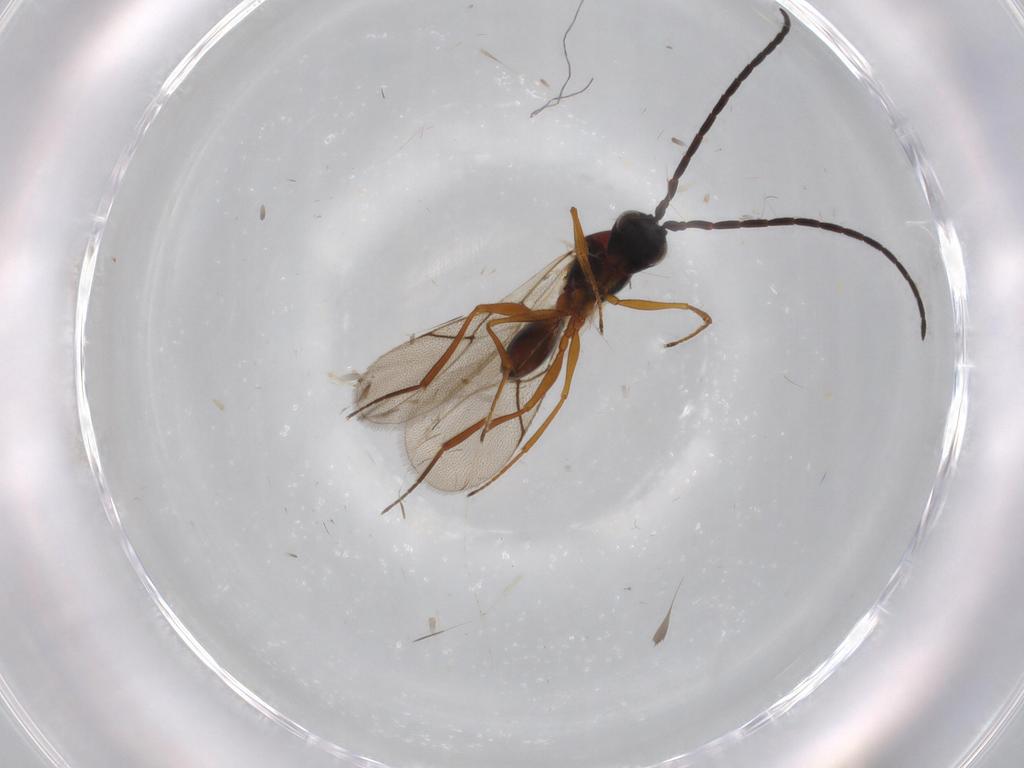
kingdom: Animalia
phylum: Arthropoda
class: Insecta
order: Hymenoptera
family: Figitidae
